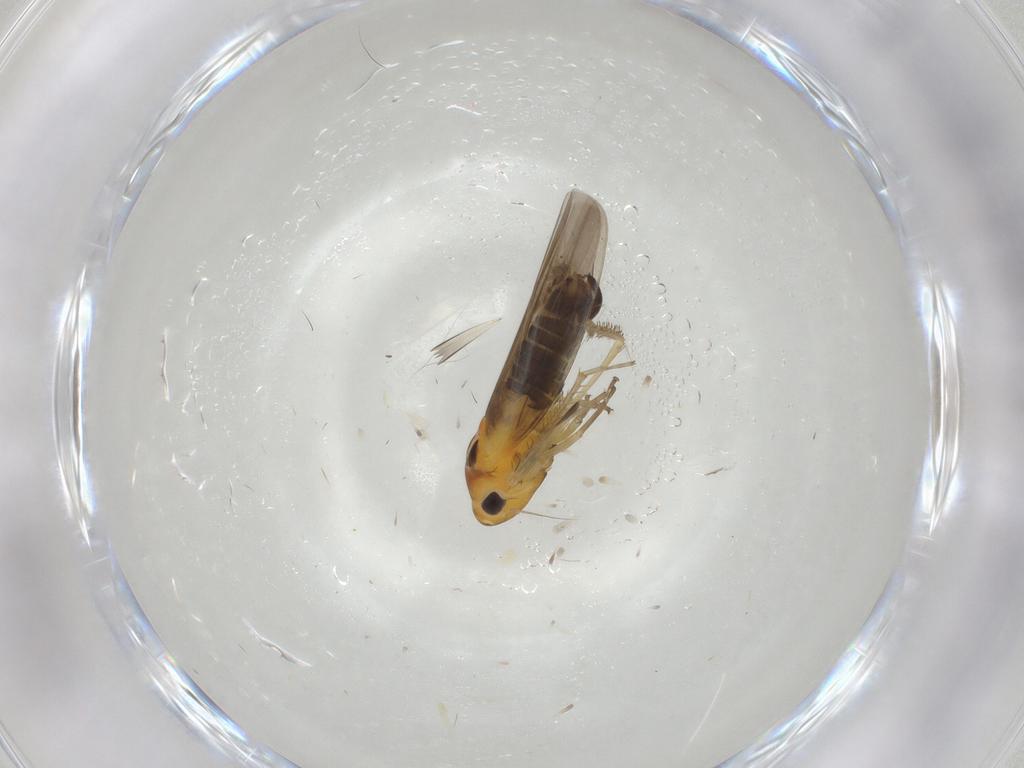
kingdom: Animalia
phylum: Arthropoda
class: Insecta
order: Hemiptera
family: Cicadellidae
